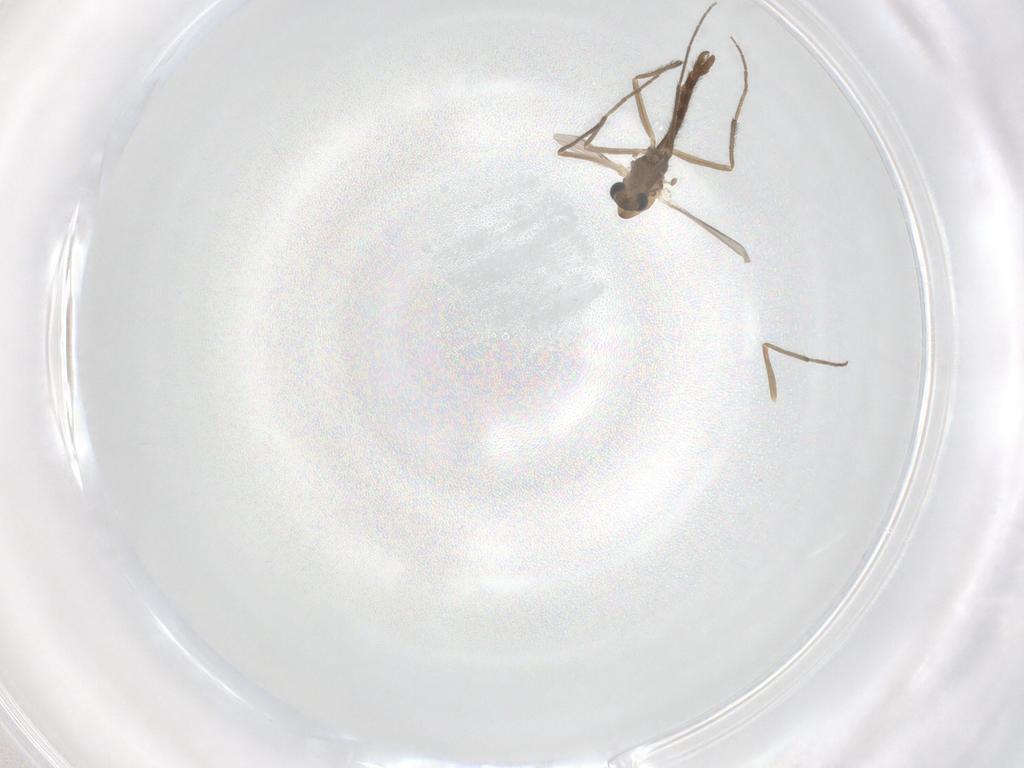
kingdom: Animalia
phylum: Arthropoda
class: Insecta
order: Diptera
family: Chironomidae
